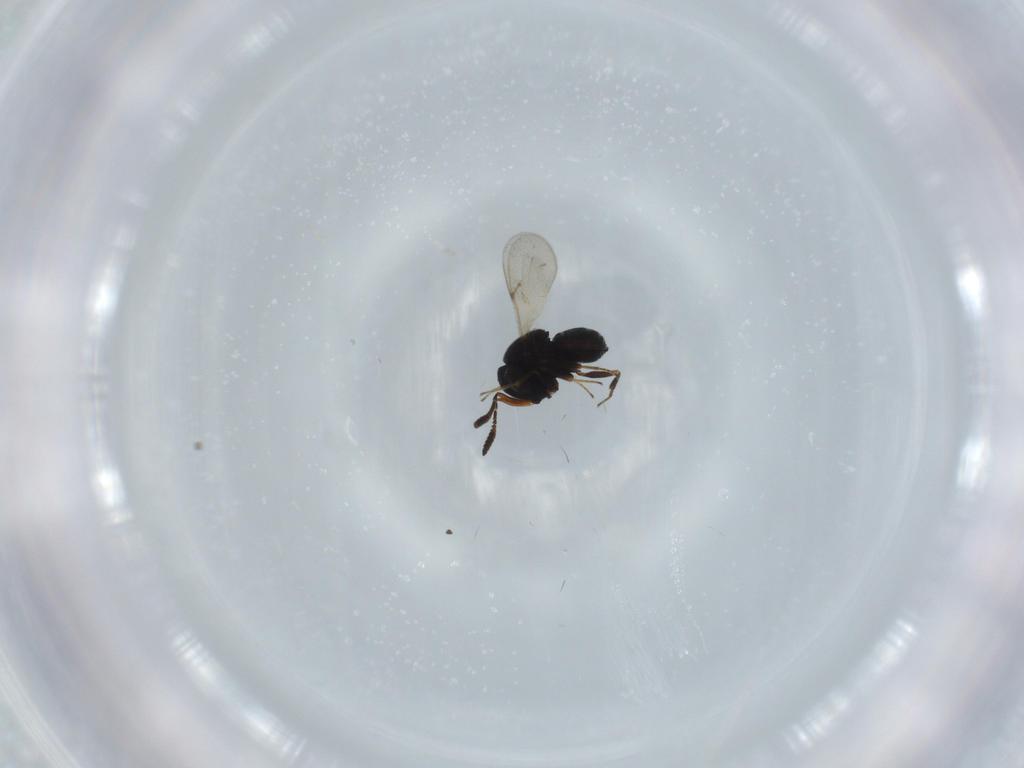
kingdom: Animalia
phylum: Arthropoda
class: Insecta
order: Hymenoptera
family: Scelionidae
